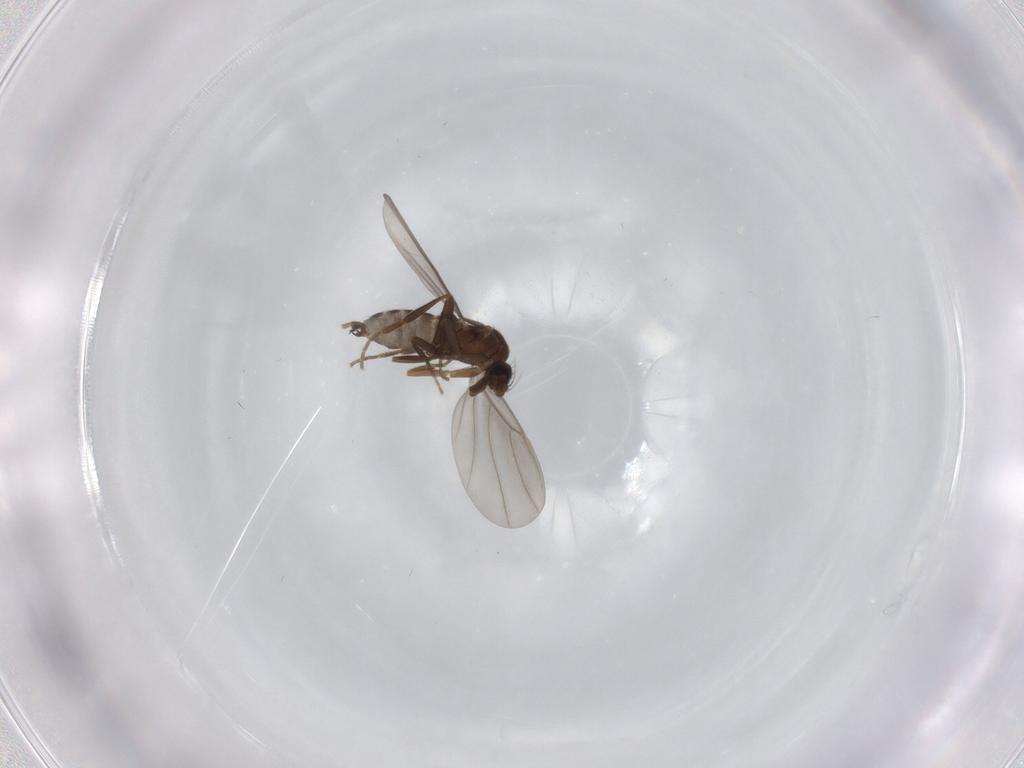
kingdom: Animalia
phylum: Arthropoda
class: Insecta
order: Diptera
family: Phoridae
